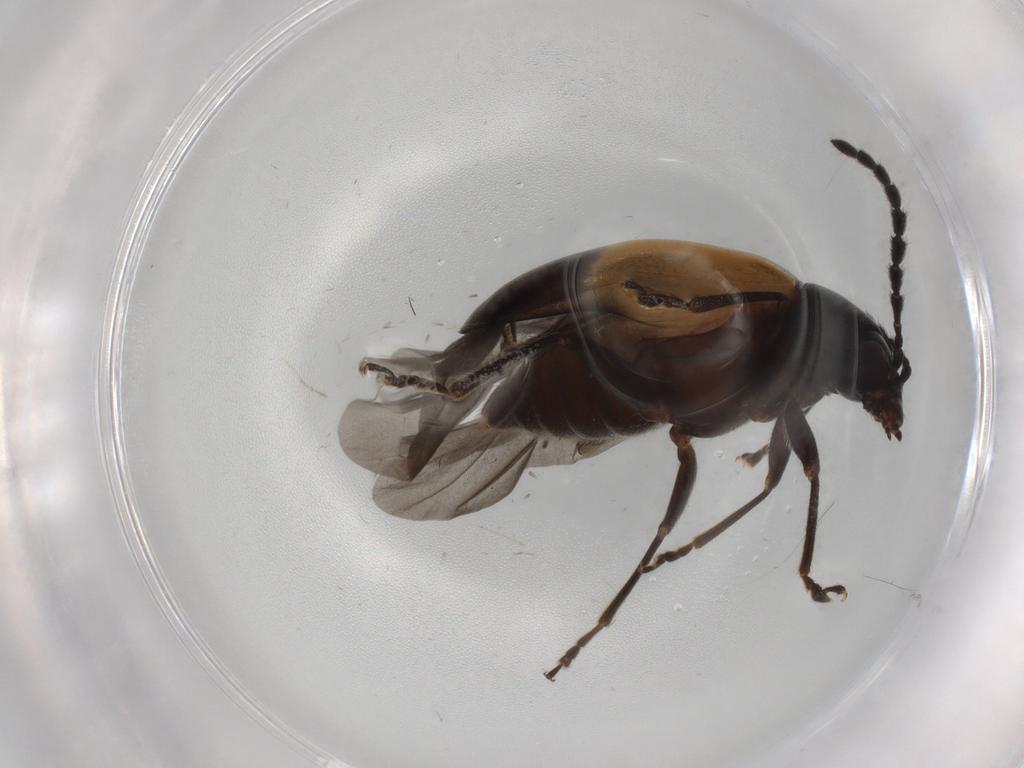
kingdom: Animalia
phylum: Arthropoda
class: Insecta
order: Coleoptera
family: Chrysomelidae
